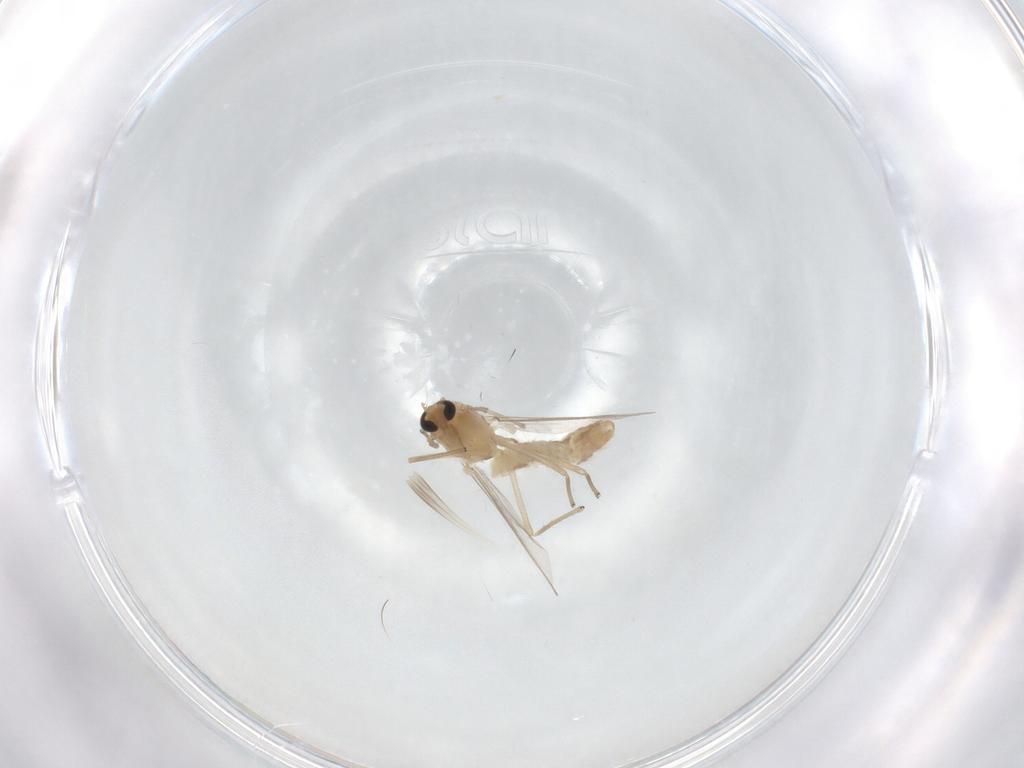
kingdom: Animalia
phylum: Arthropoda
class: Insecta
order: Diptera
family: Chironomidae
